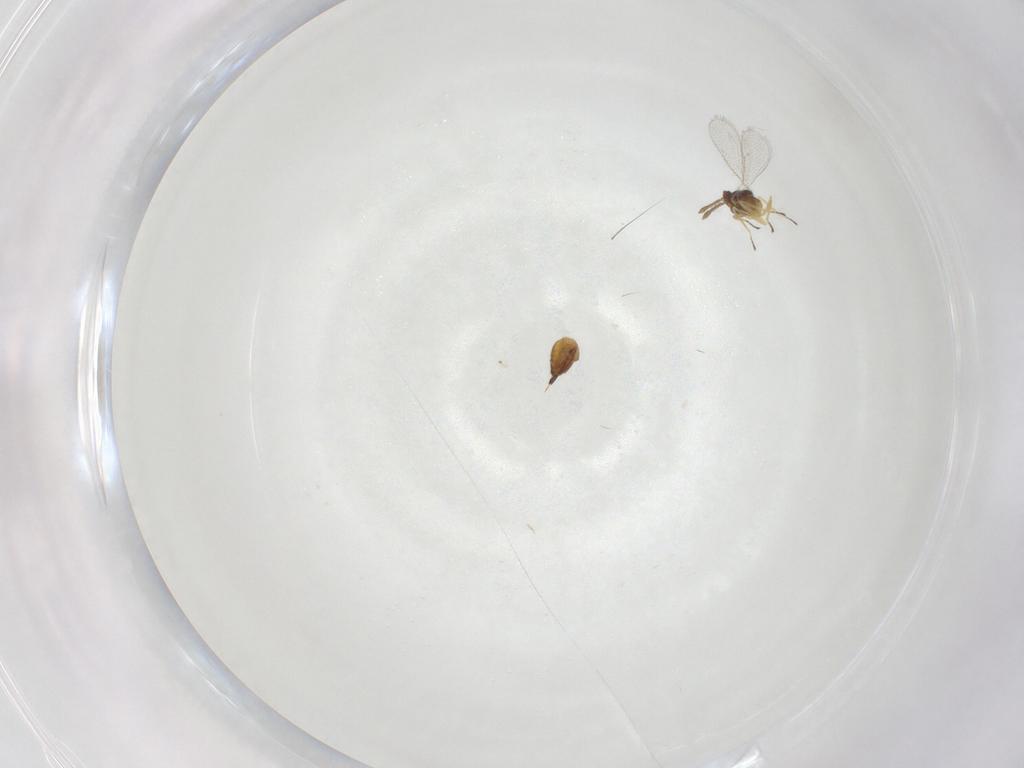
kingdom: Animalia
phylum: Arthropoda
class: Insecta
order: Hymenoptera
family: Eulophidae
